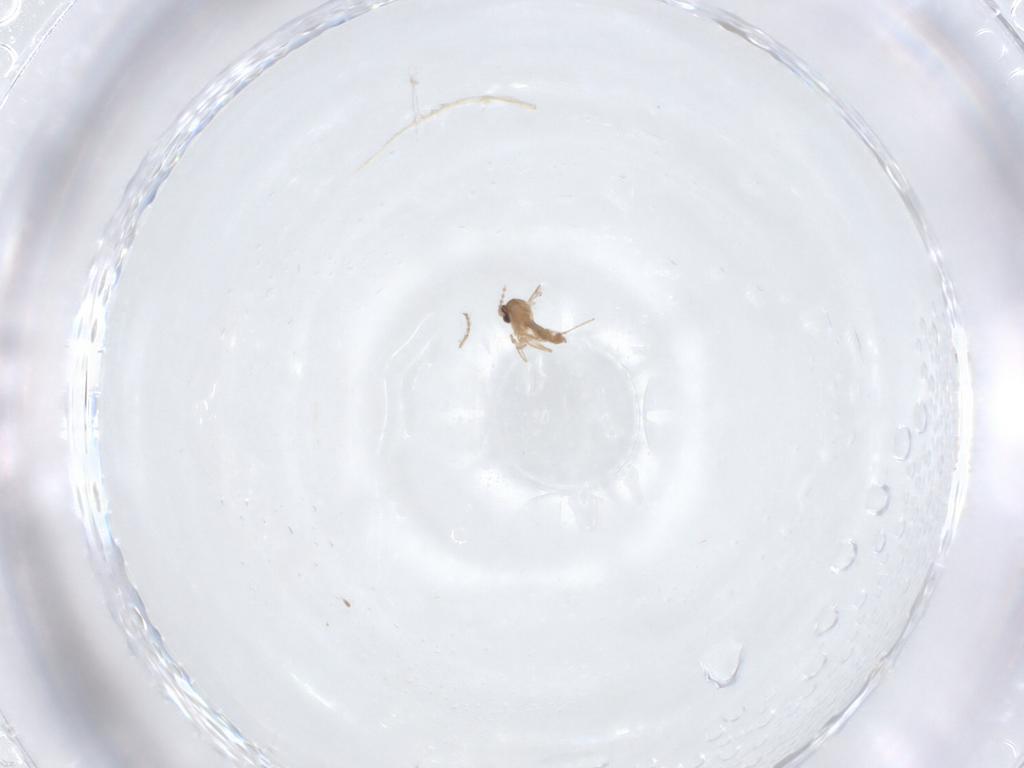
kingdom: Animalia
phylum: Arthropoda
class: Insecta
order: Diptera
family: Cecidomyiidae
